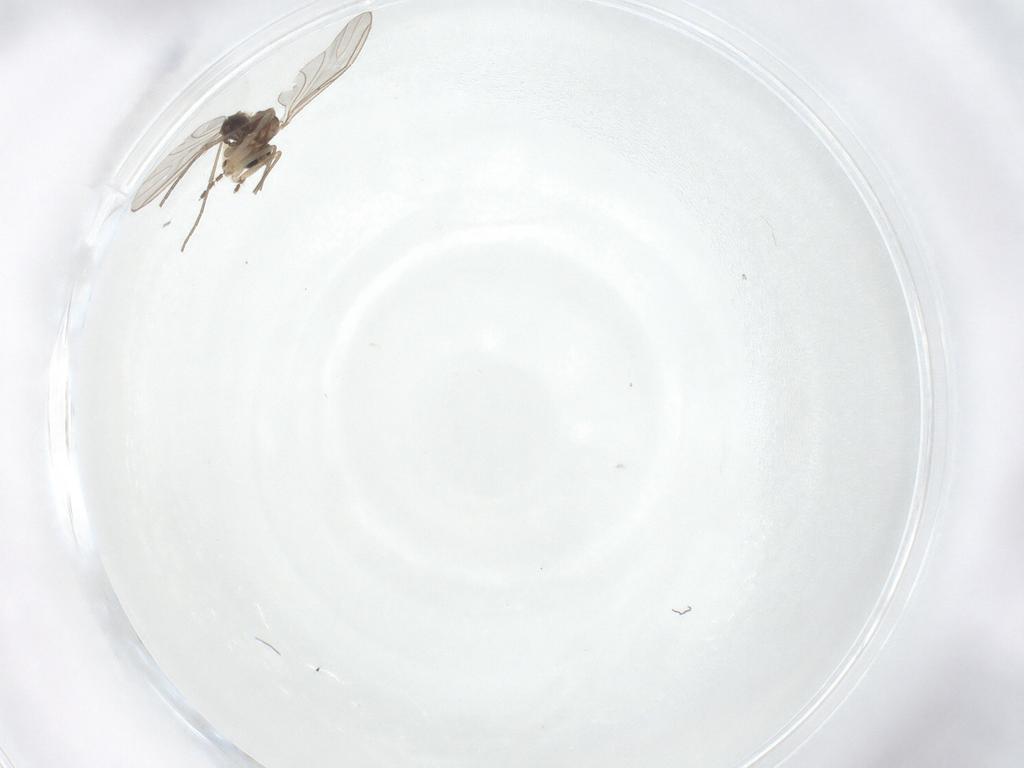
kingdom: Animalia
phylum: Arthropoda
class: Insecta
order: Diptera
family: Sciaridae
